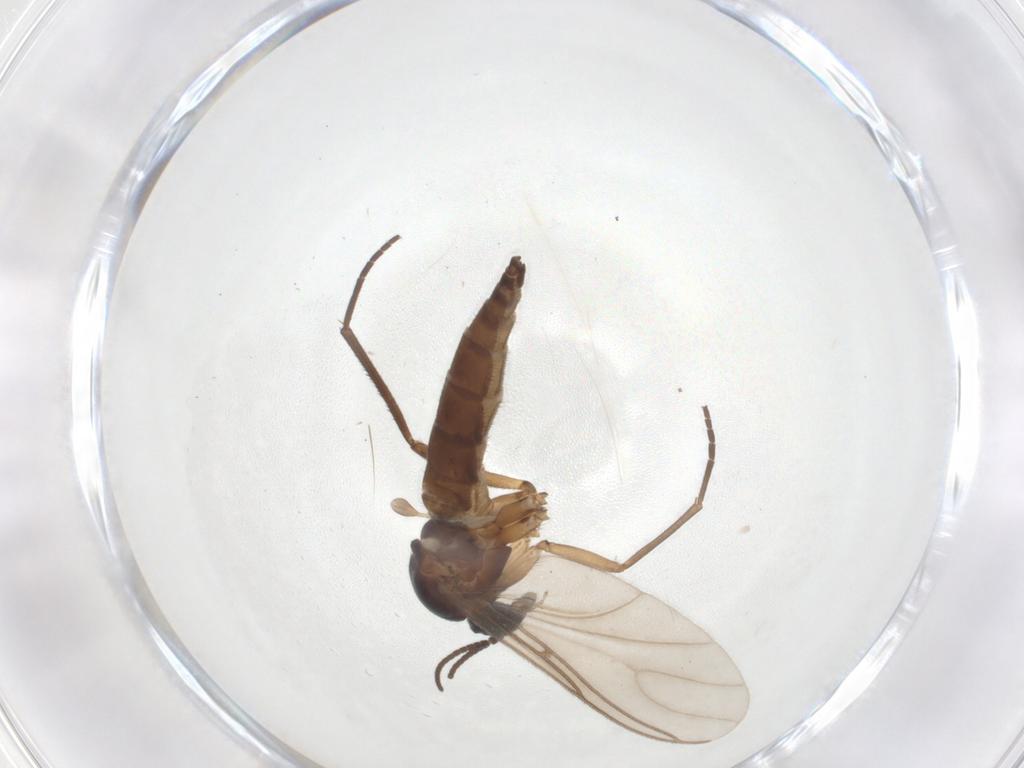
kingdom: Animalia
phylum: Arthropoda
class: Insecta
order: Diptera
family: Sciaridae
